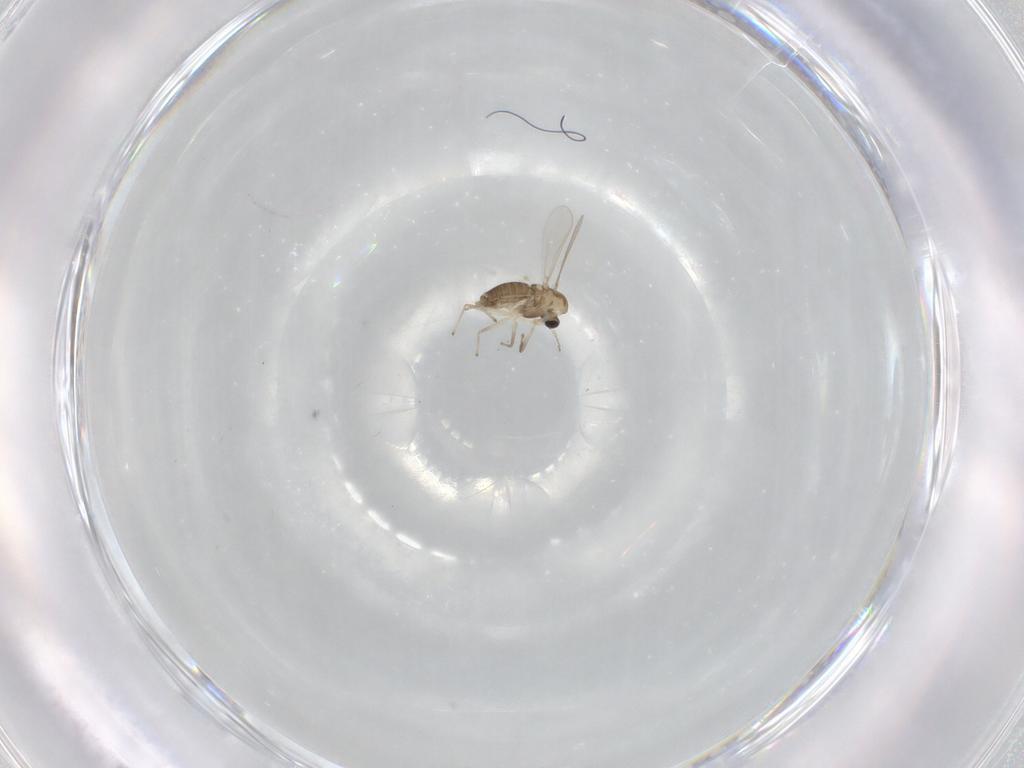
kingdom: Animalia
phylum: Arthropoda
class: Insecta
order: Diptera
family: Chironomidae
